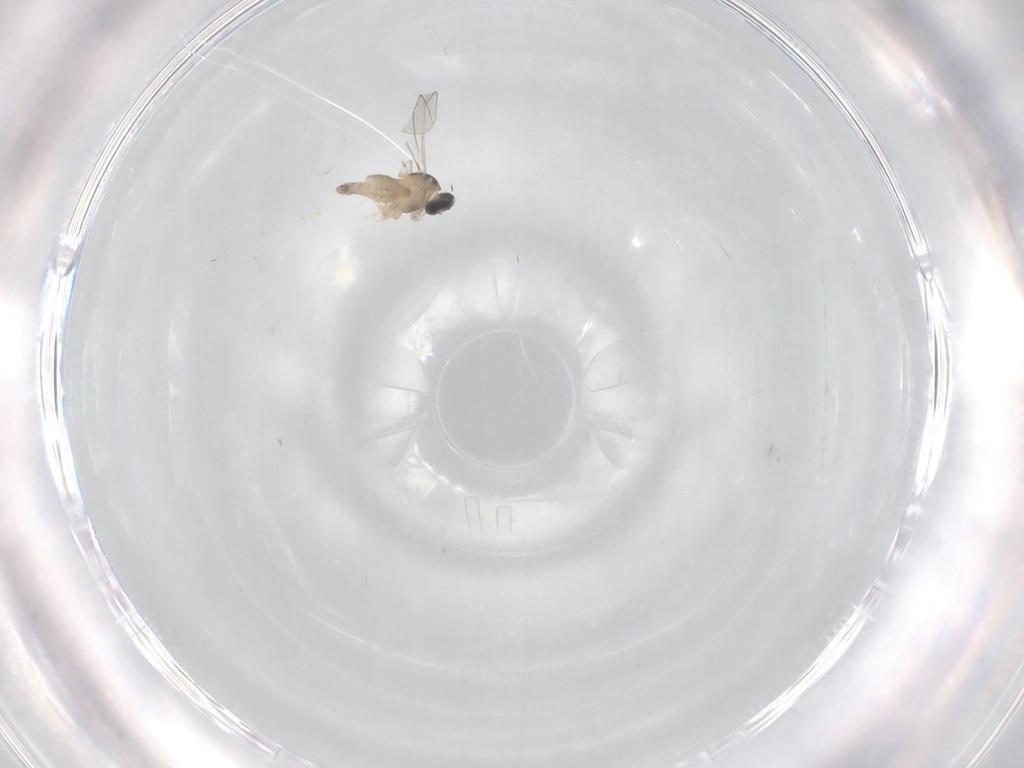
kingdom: Animalia
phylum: Arthropoda
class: Insecta
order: Diptera
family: Cecidomyiidae
